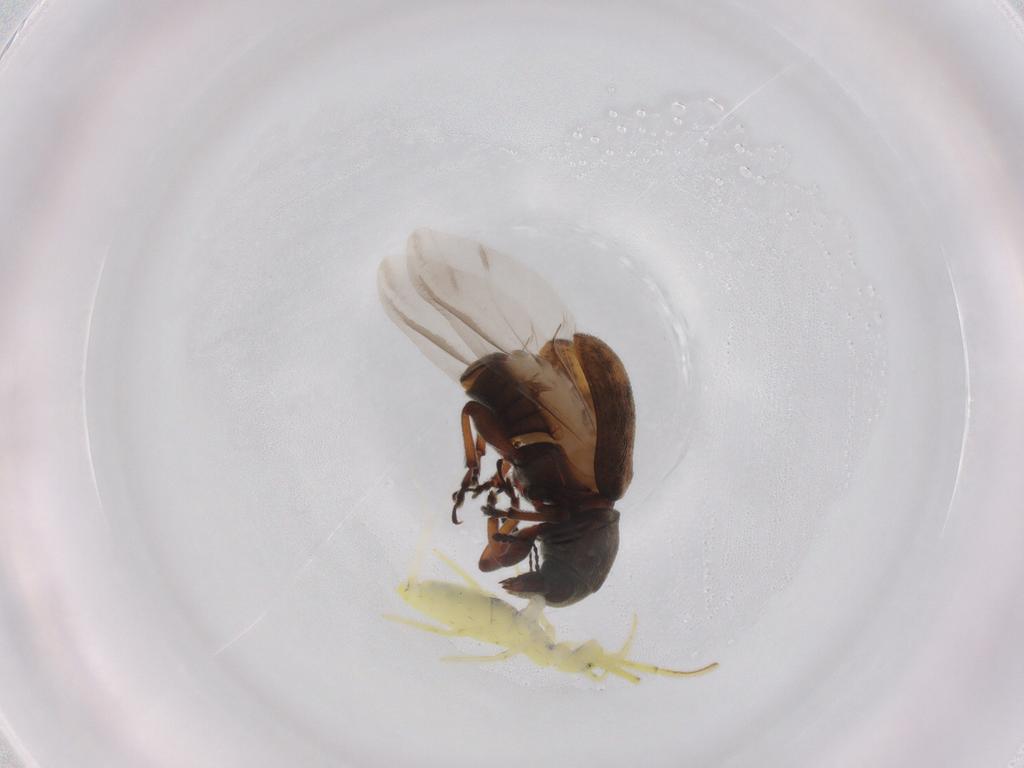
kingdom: Animalia
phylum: Arthropoda
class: Insecta
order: Coleoptera
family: Anthribidae
